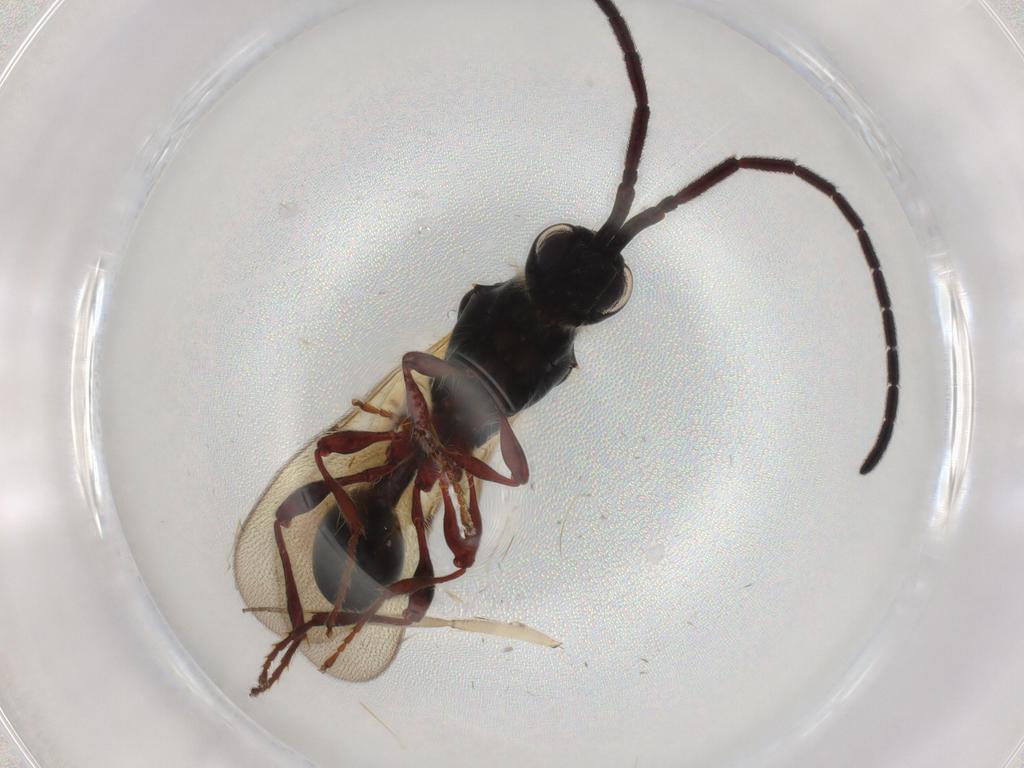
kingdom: Animalia
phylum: Arthropoda
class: Insecta
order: Hymenoptera
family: Diapriidae
